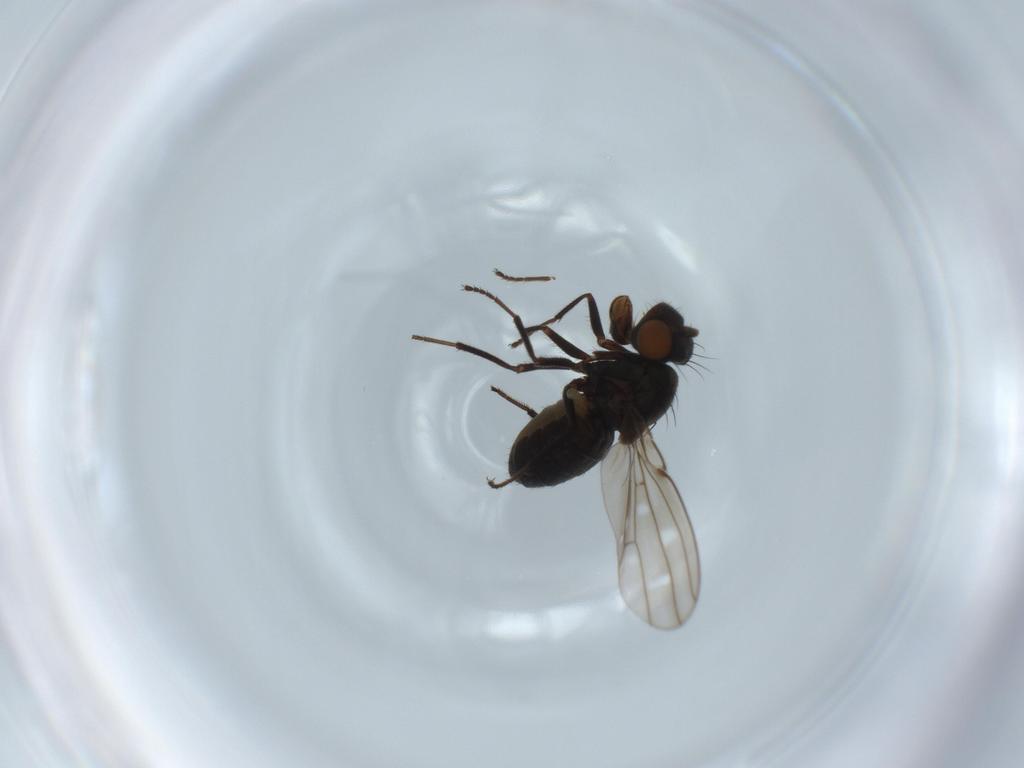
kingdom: Animalia
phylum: Arthropoda
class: Insecta
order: Diptera
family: Ephydridae
